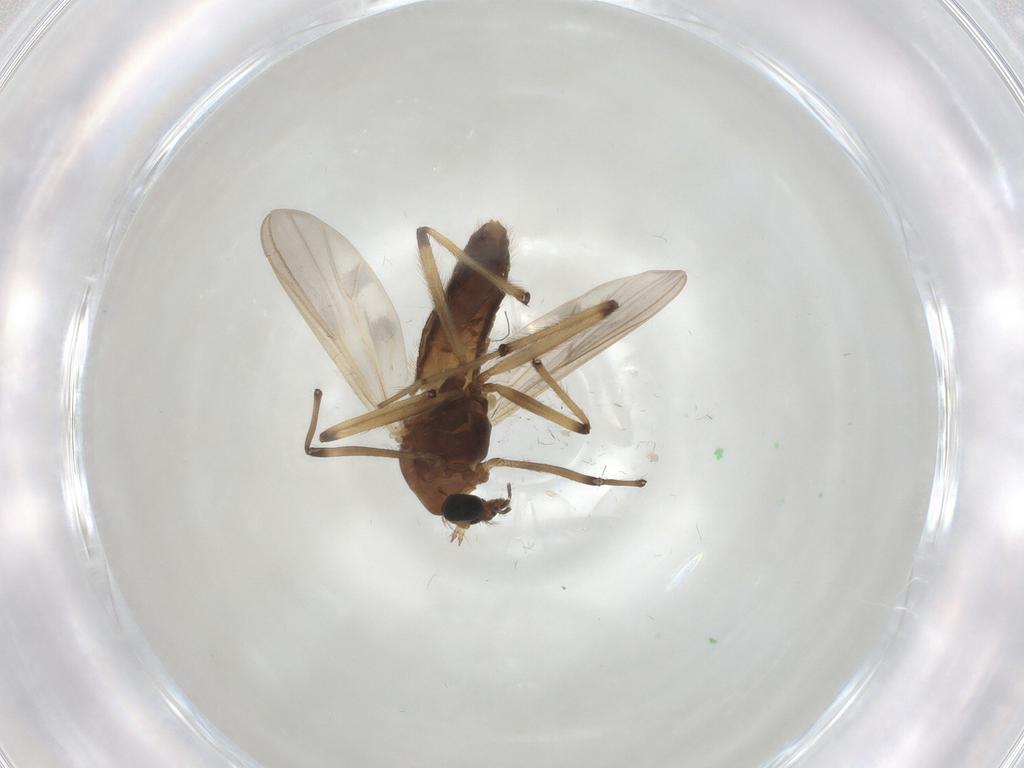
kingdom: Animalia
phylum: Arthropoda
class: Insecta
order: Diptera
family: Chironomidae
